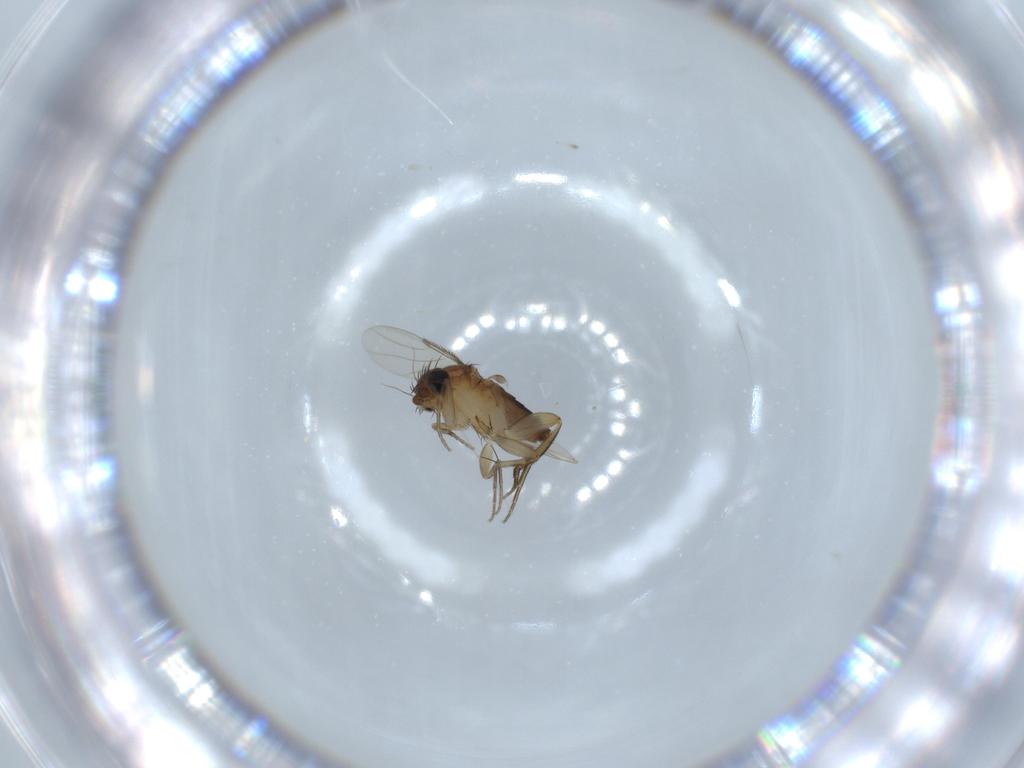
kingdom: Animalia
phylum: Arthropoda
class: Insecta
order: Diptera
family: Phoridae
